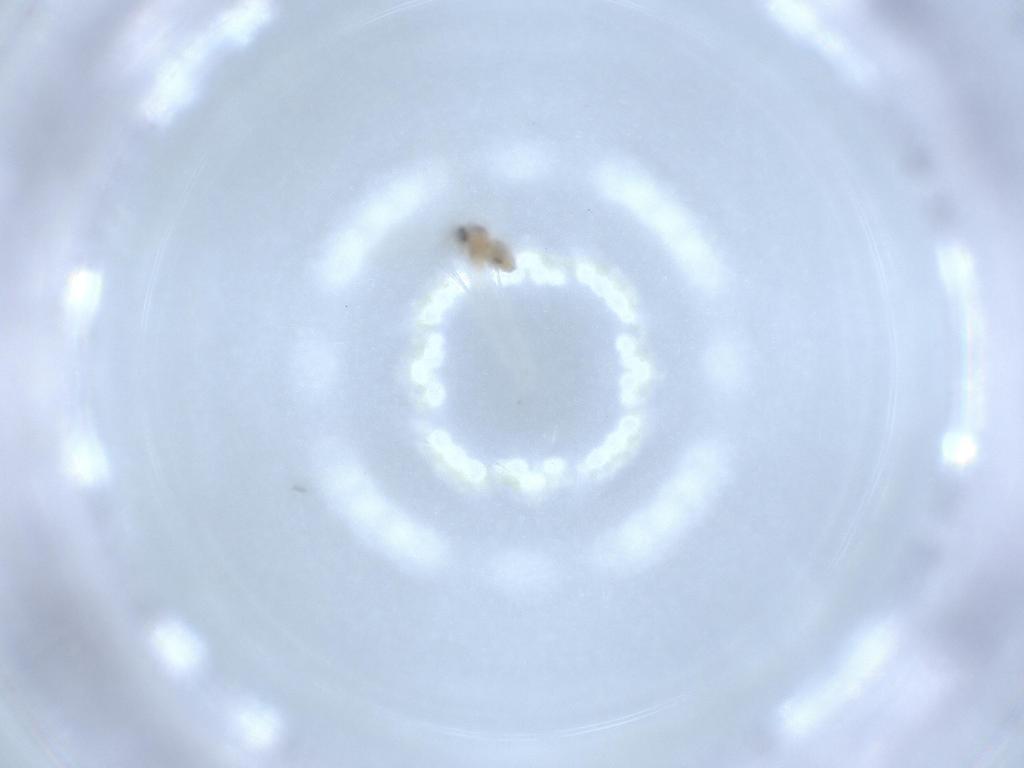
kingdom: Animalia
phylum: Arthropoda
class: Insecta
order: Diptera
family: Cecidomyiidae
